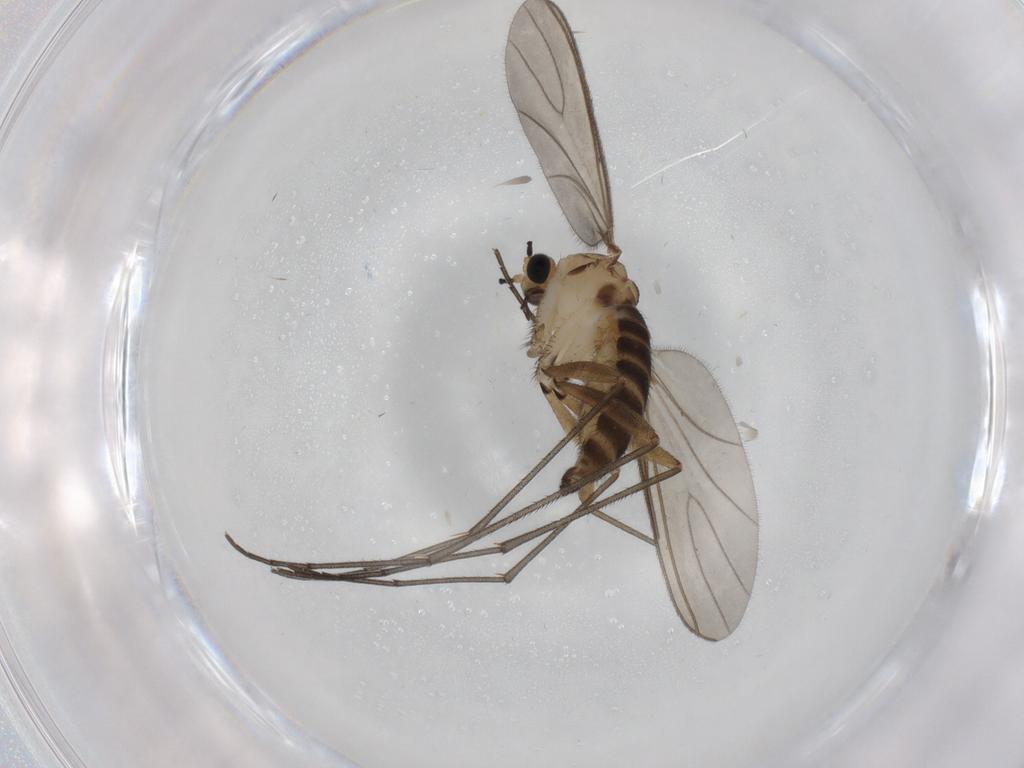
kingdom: Animalia
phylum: Arthropoda
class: Insecta
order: Diptera
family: Sciaridae
